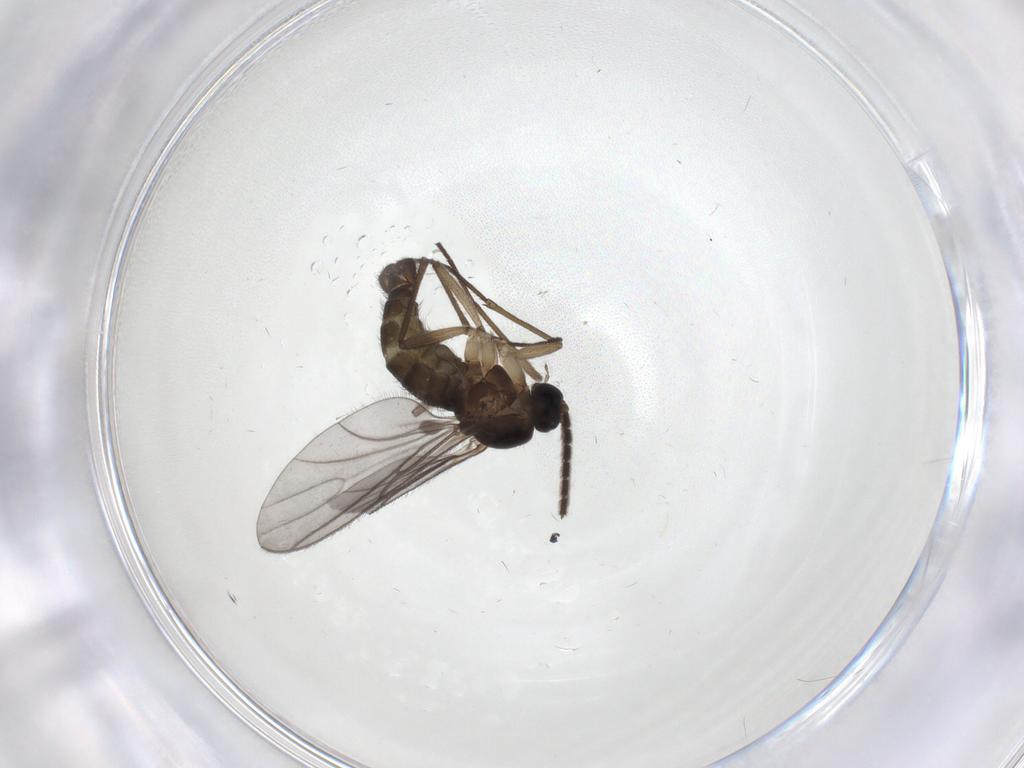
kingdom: Animalia
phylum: Arthropoda
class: Insecta
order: Diptera
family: Sciaridae
